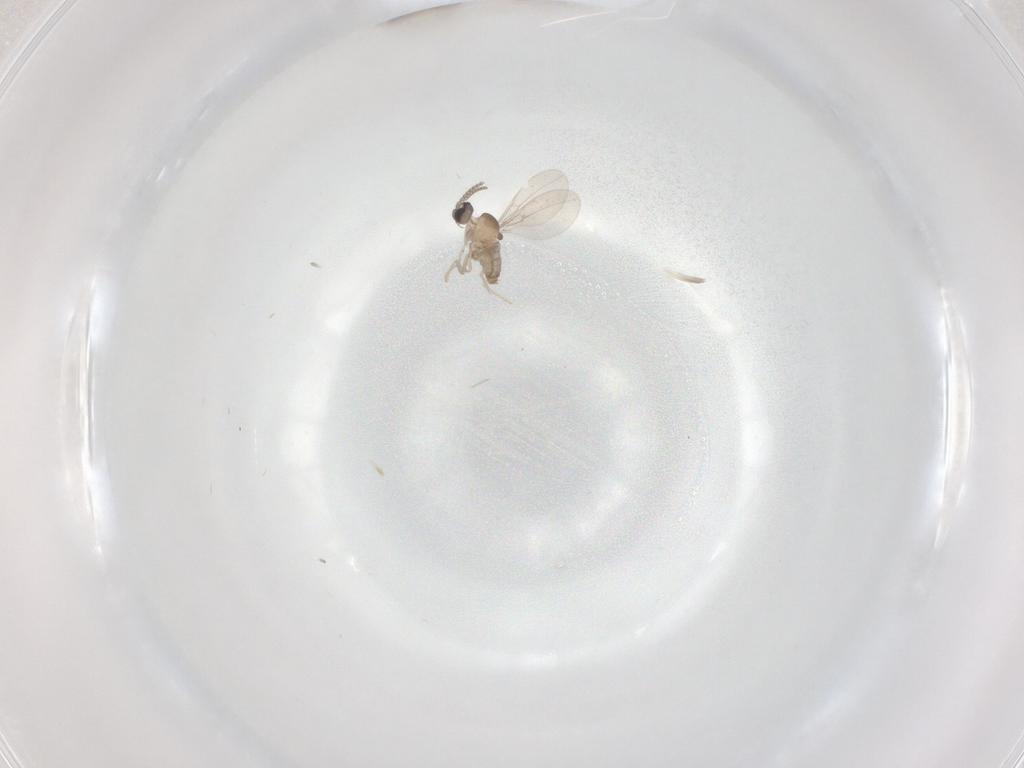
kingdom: Animalia
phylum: Arthropoda
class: Insecta
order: Diptera
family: Cecidomyiidae
